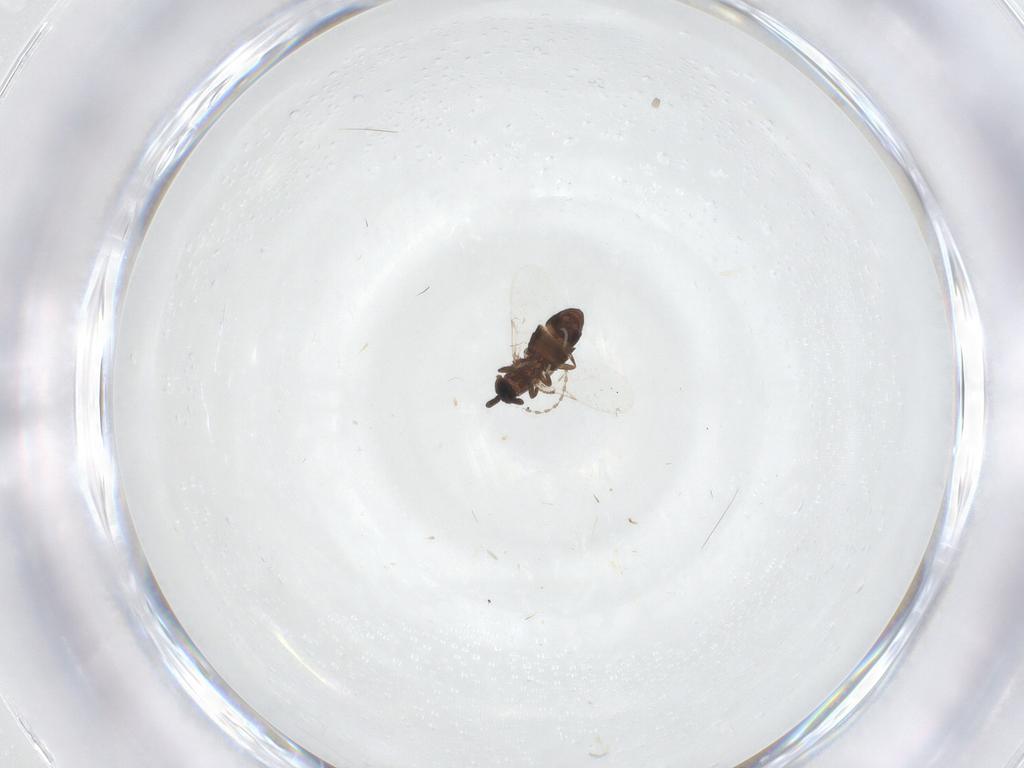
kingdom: Animalia
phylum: Arthropoda
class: Insecta
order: Diptera
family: Scatopsidae
